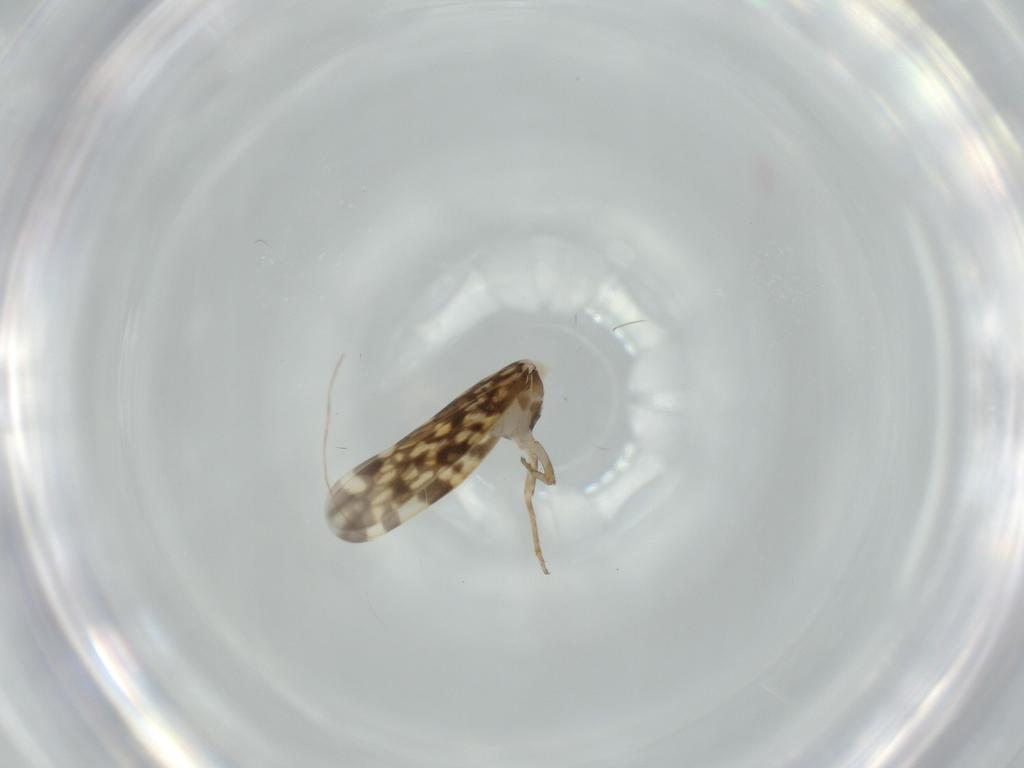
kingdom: Animalia
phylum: Arthropoda
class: Insecta
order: Hemiptera
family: Cicadellidae
